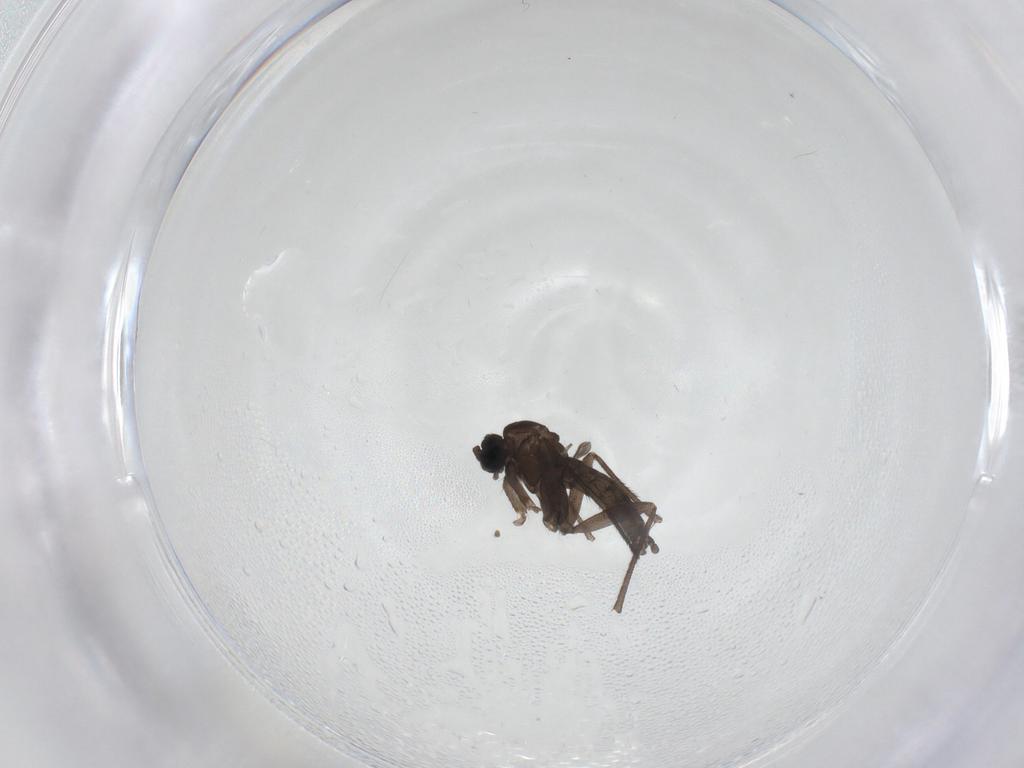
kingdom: Animalia
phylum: Arthropoda
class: Insecta
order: Diptera
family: Sciaridae
